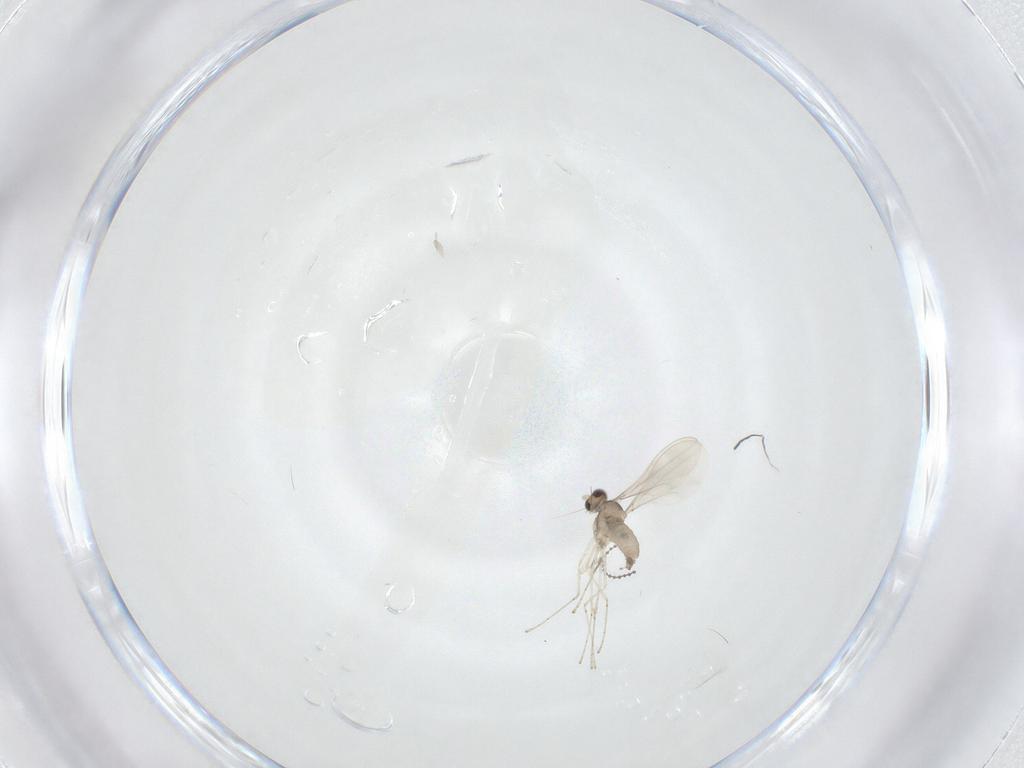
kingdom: Animalia
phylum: Arthropoda
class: Insecta
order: Diptera
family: Cecidomyiidae
